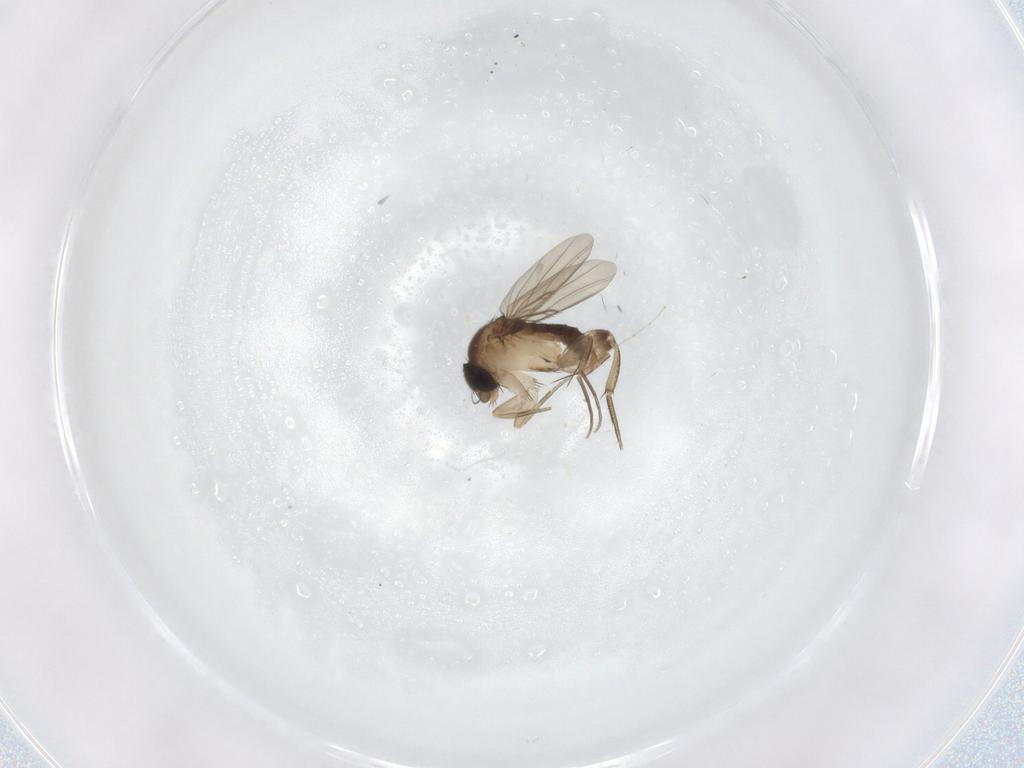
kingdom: Animalia
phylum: Arthropoda
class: Insecta
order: Diptera
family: Phoridae
